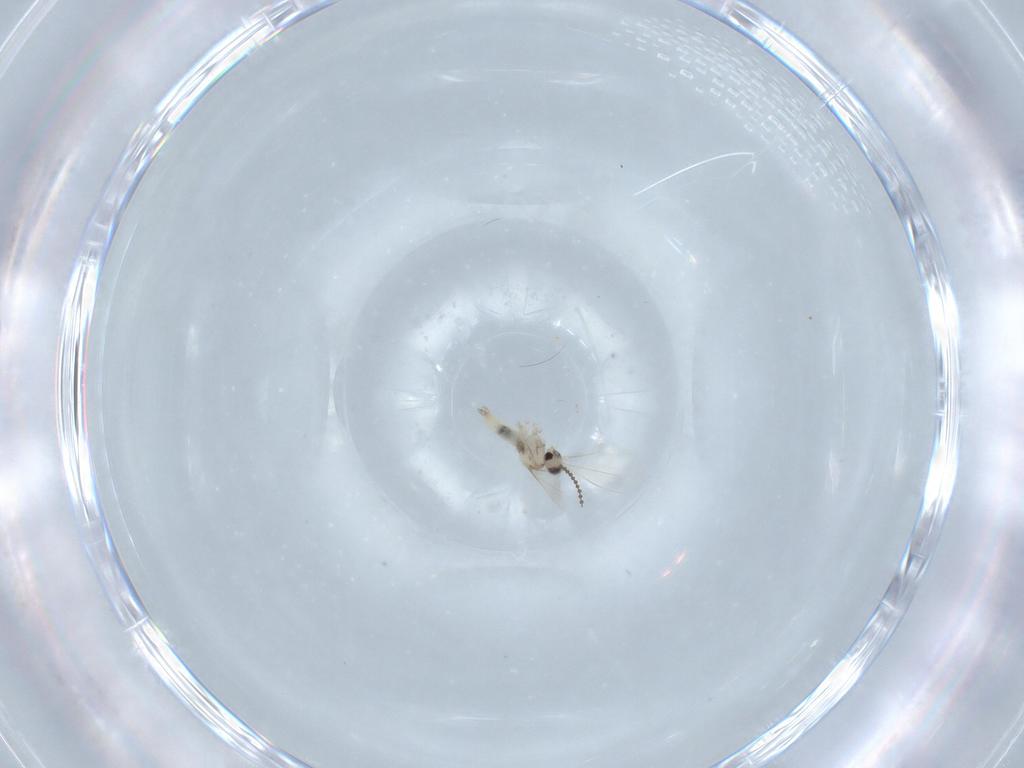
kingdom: Animalia
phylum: Arthropoda
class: Insecta
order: Diptera
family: Cecidomyiidae
